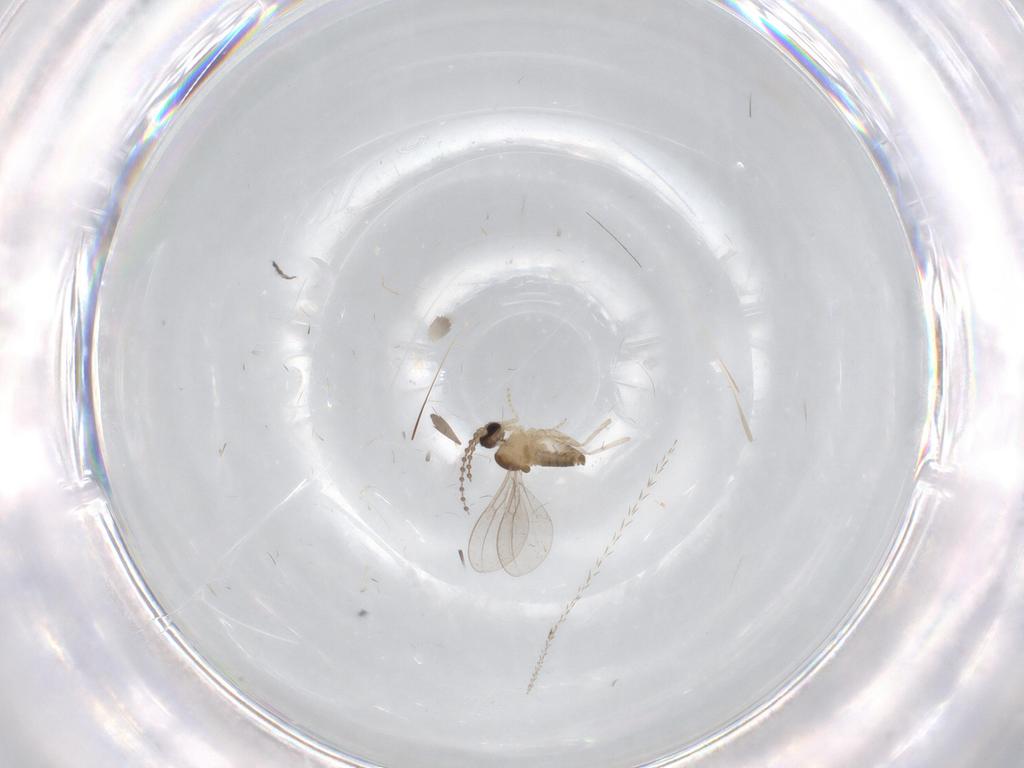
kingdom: Animalia
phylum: Arthropoda
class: Insecta
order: Diptera
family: Cecidomyiidae
